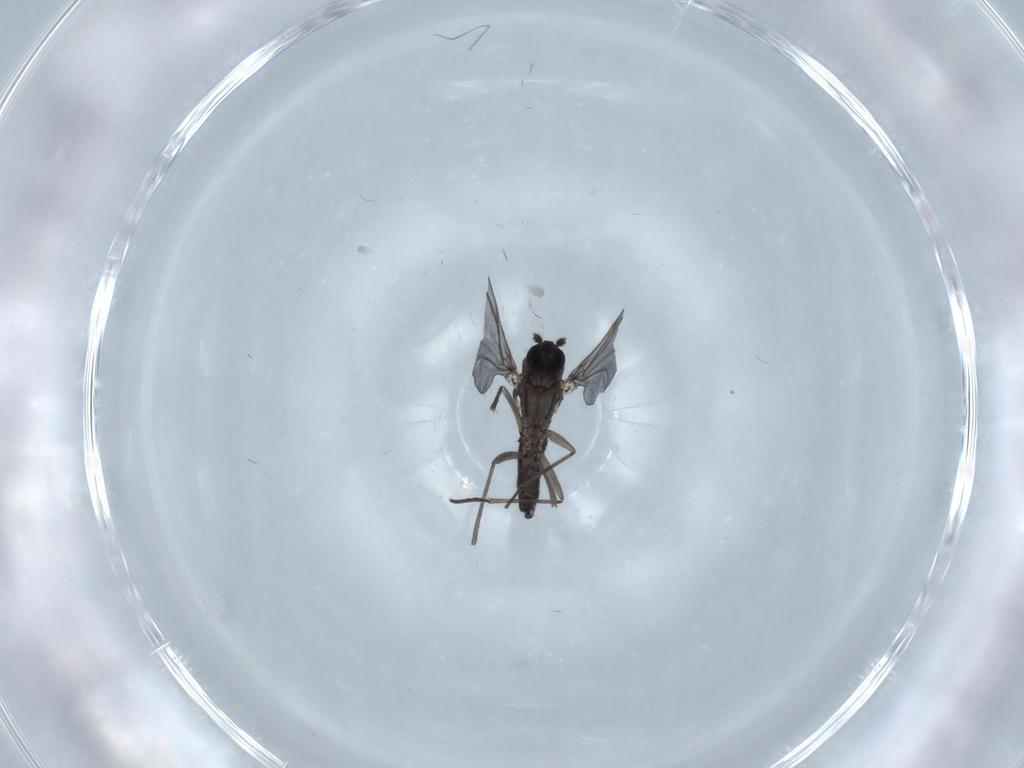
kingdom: Animalia
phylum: Arthropoda
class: Insecta
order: Diptera
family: Sciaridae
